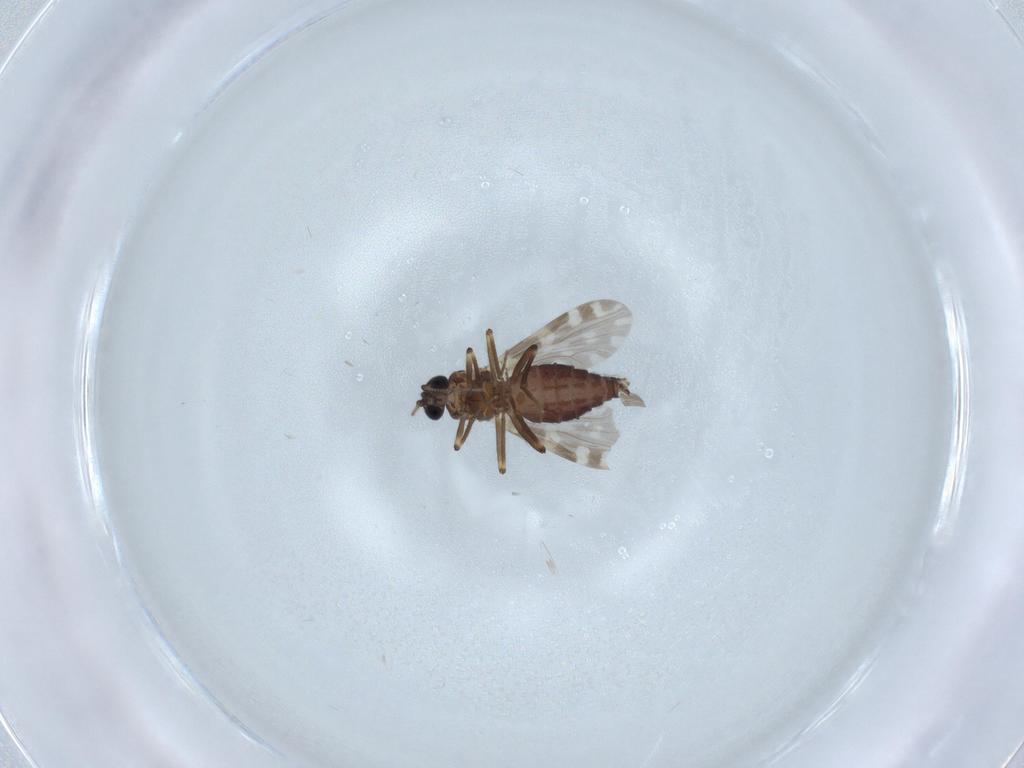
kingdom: Animalia
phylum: Arthropoda
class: Insecta
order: Diptera
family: Ceratopogonidae
